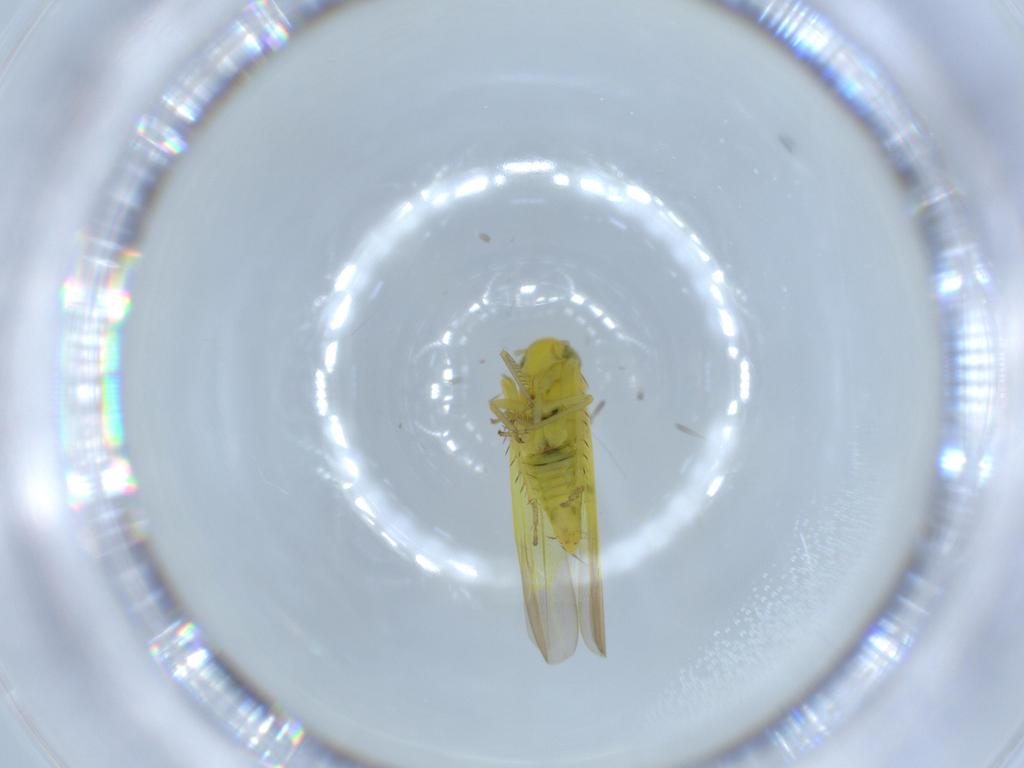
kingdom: Animalia
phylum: Arthropoda
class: Insecta
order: Hemiptera
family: Cicadellidae
